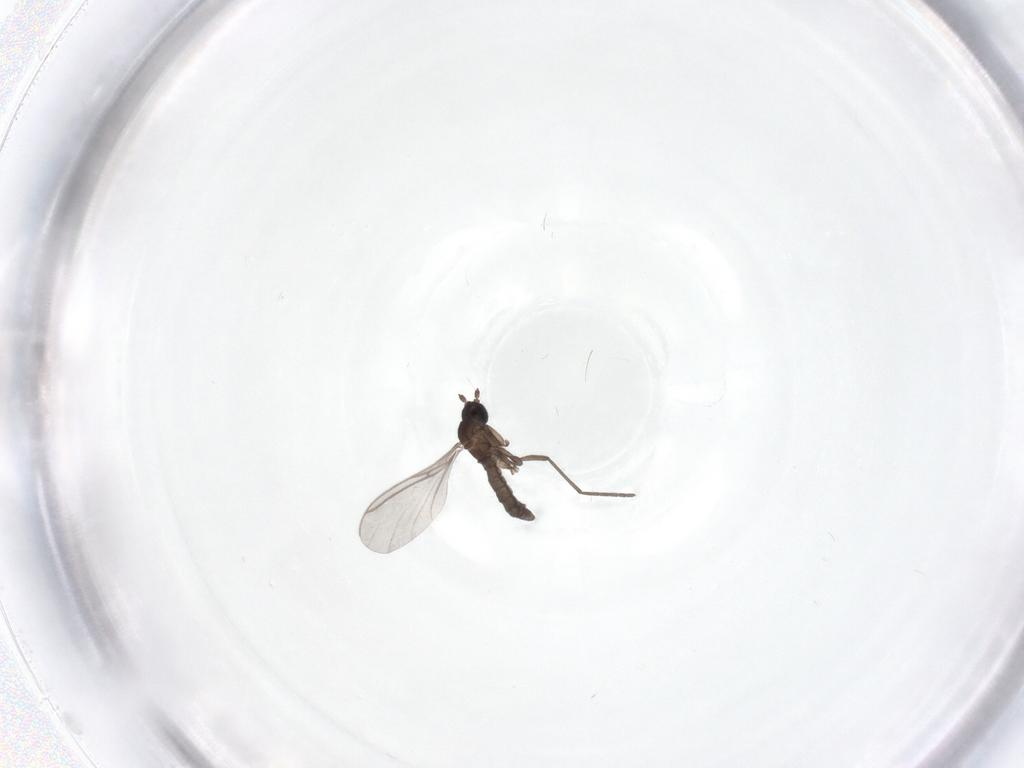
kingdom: Animalia
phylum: Arthropoda
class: Insecta
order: Diptera
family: Sciaridae
